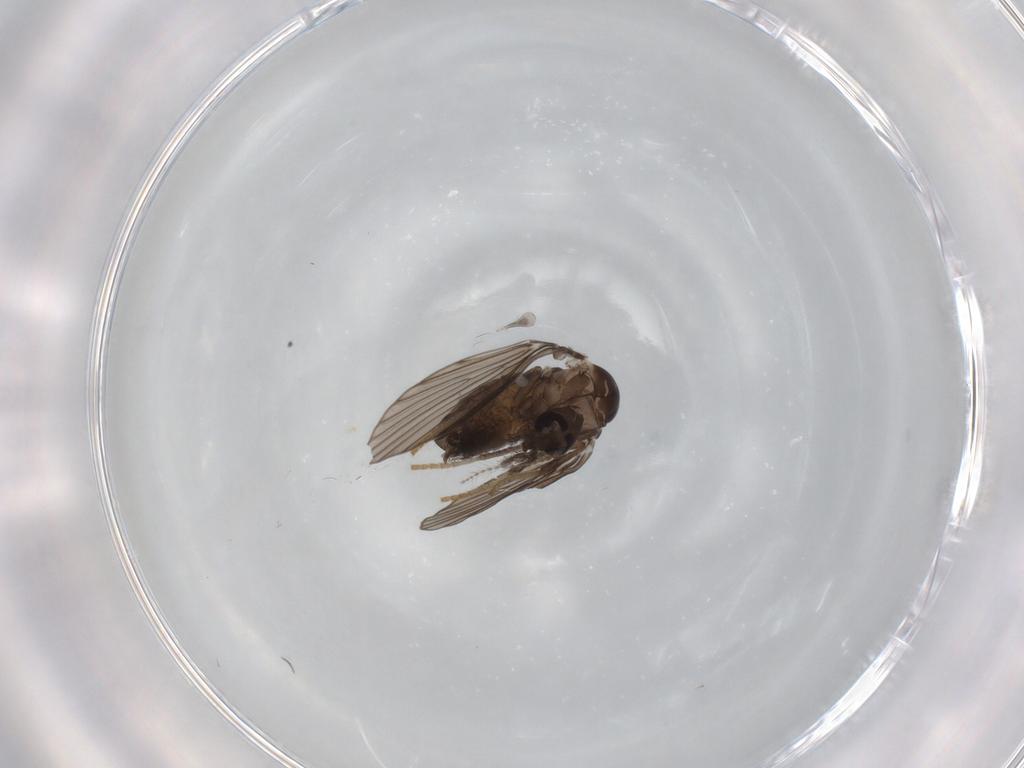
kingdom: Animalia
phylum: Arthropoda
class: Insecta
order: Diptera
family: Psychodidae
